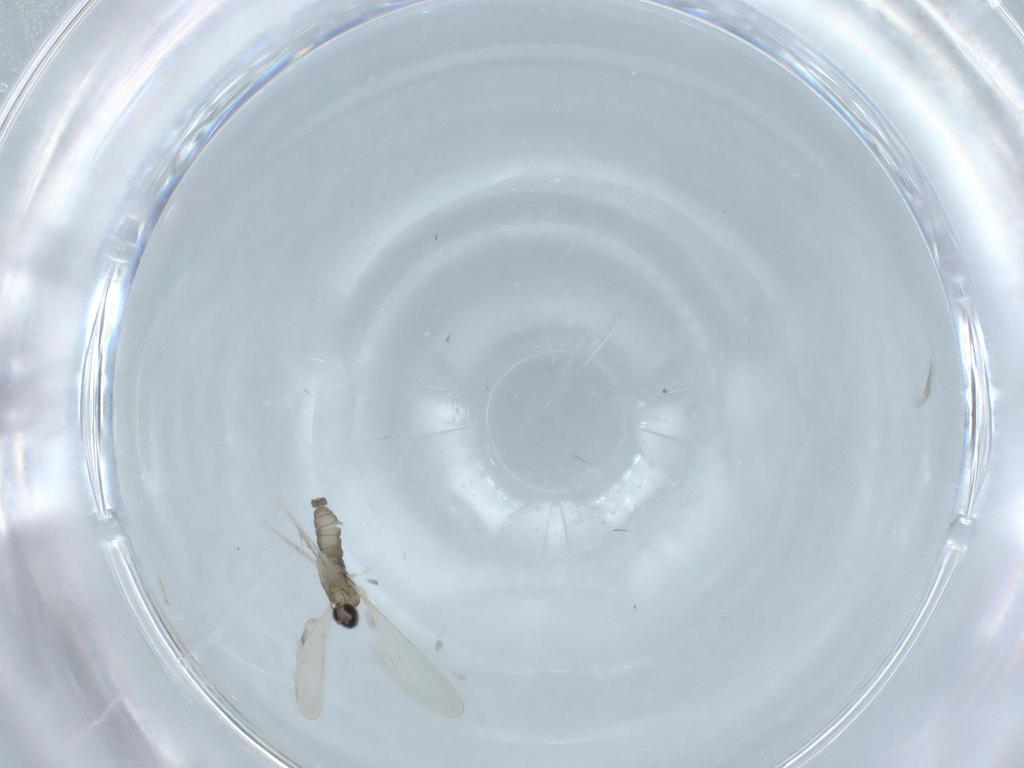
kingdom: Animalia
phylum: Arthropoda
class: Insecta
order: Diptera
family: Cecidomyiidae
